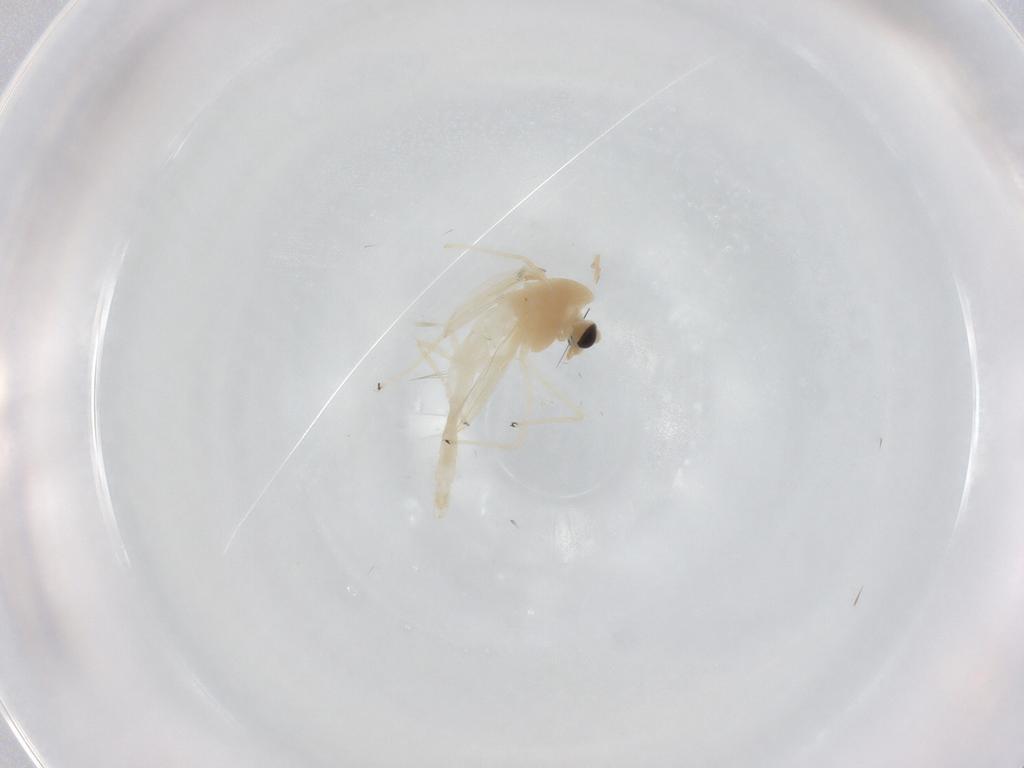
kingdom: Animalia
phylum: Arthropoda
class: Insecta
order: Diptera
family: Chironomidae
